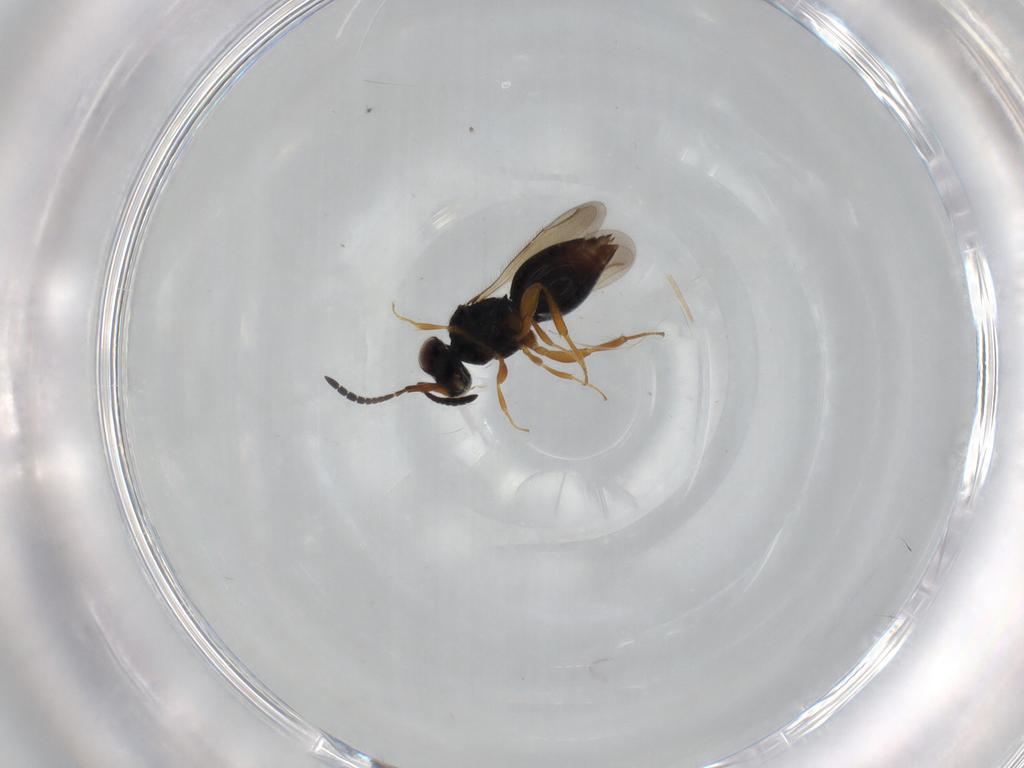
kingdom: Animalia
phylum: Arthropoda
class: Insecta
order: Hymenoptera
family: Ceraphronidae
